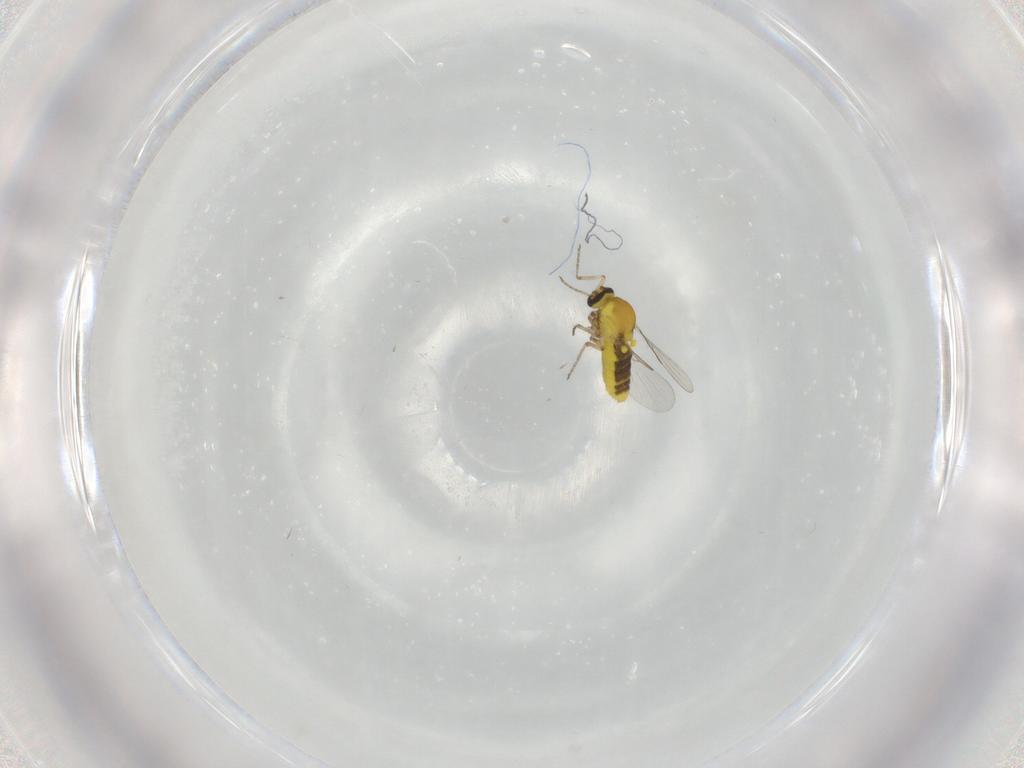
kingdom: Animalia
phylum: Arthropoda
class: Insecta
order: Diptera
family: Ceratopogonidae
